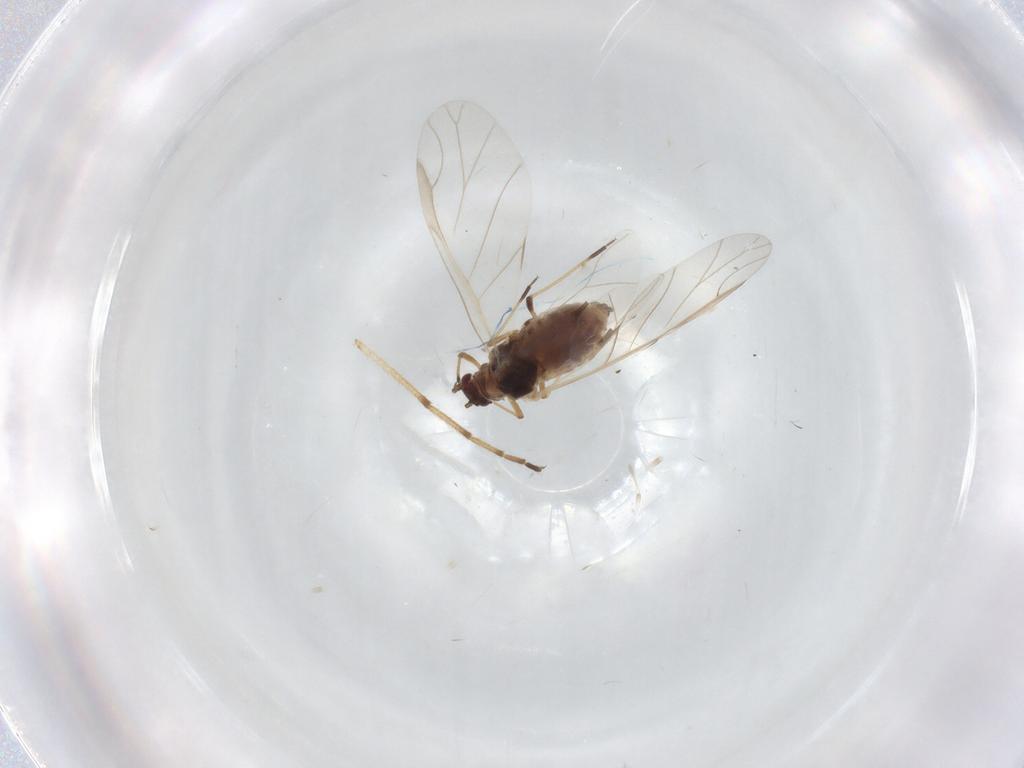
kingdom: Animalia
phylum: Arthropoda
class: Insecta
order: Hemiptera
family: Aphididae
